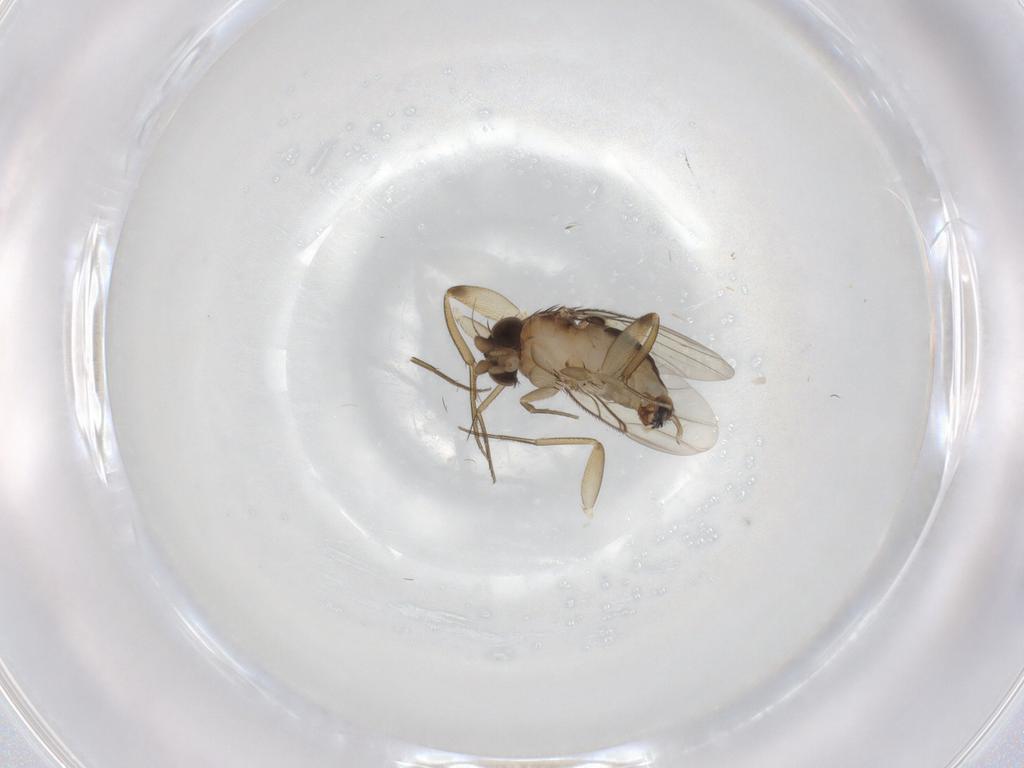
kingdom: Animalia
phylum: Arthropoda
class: Insecta
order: Diptera
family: Phoridae
